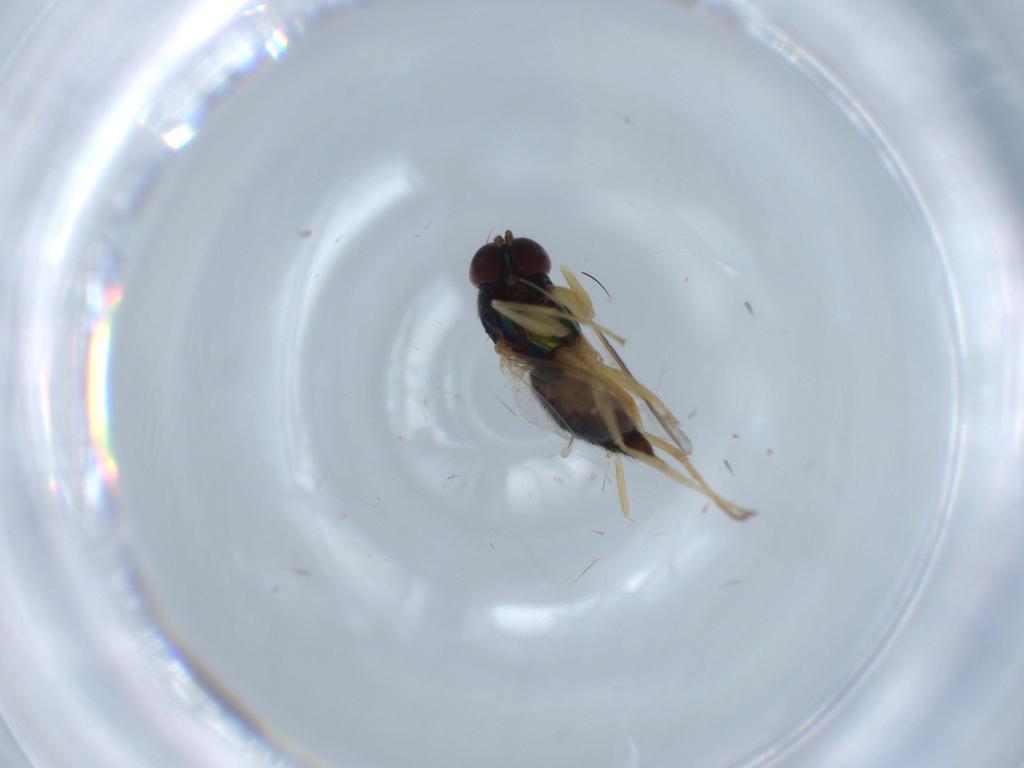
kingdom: Animalia
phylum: Arthropoda
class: Insecta
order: Diptera
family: Dolichopodidae
